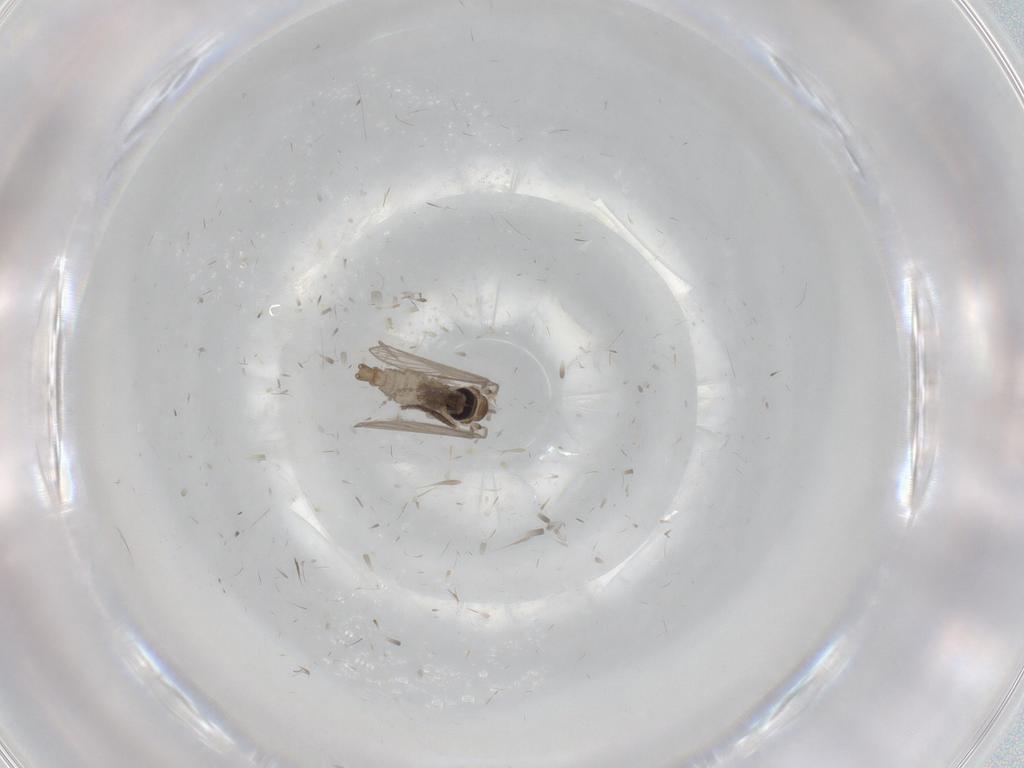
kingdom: Animalia
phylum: Arthropoda
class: Insecta
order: Diptera
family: Psychodidae
